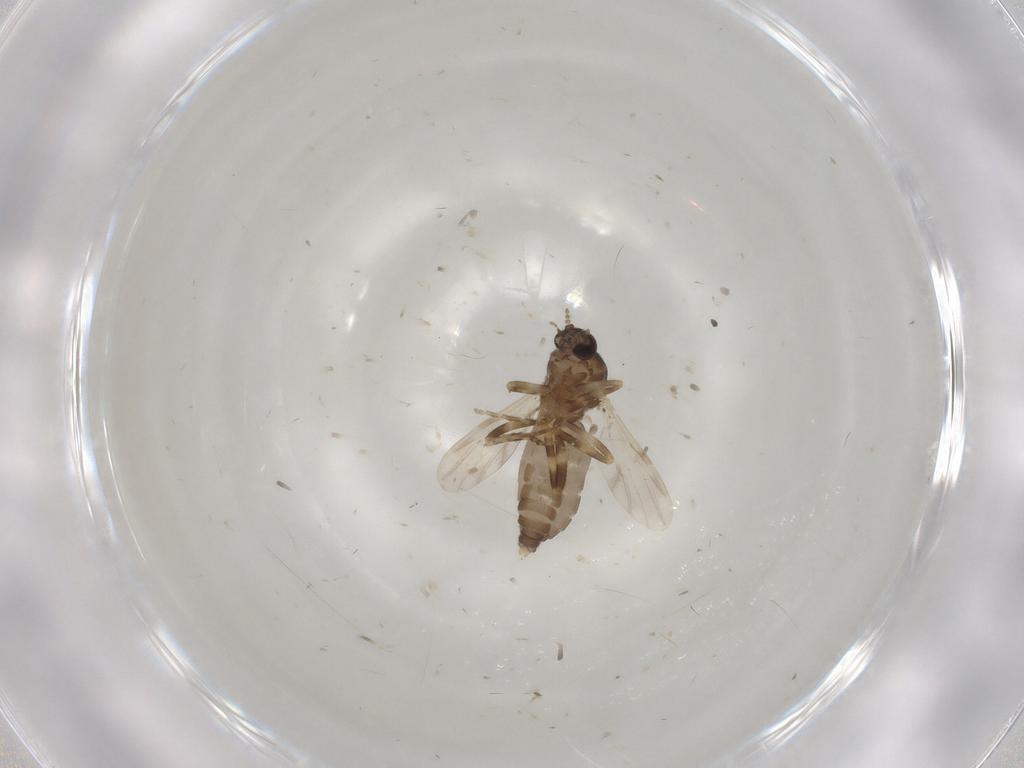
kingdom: Animalia
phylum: Arthropoda
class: Insecta
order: Diptera
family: Ceratopogonidae
